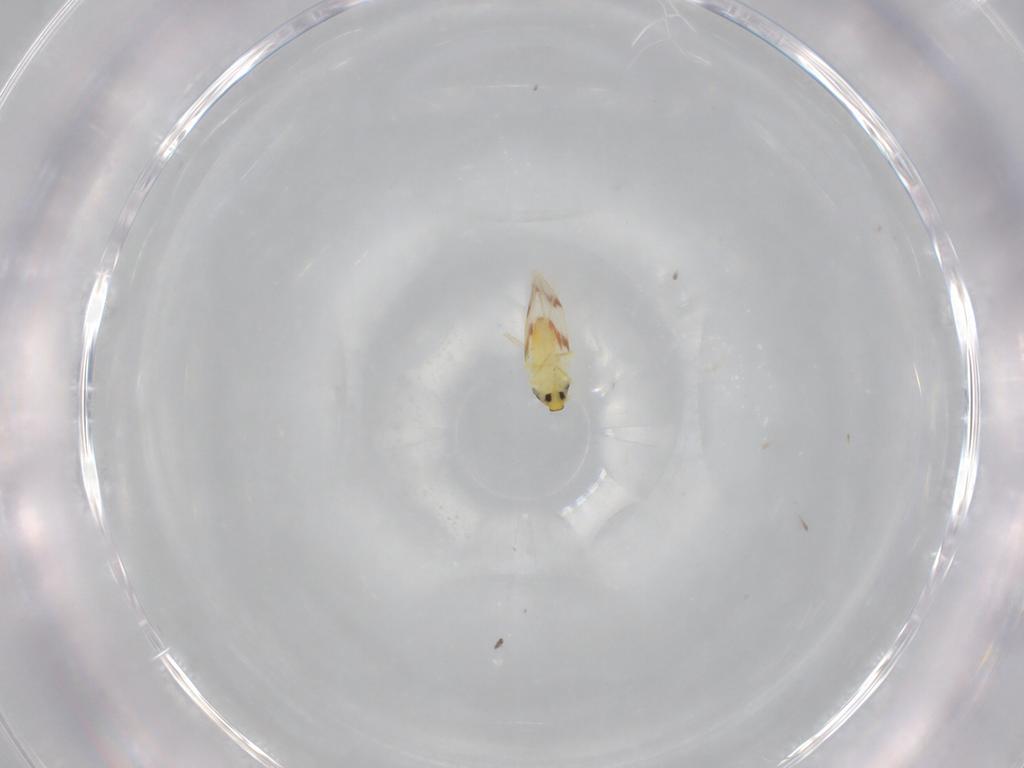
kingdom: Animalia
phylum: Arthropoda
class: Insecta
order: Hemiptera
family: Aleyrodidae
